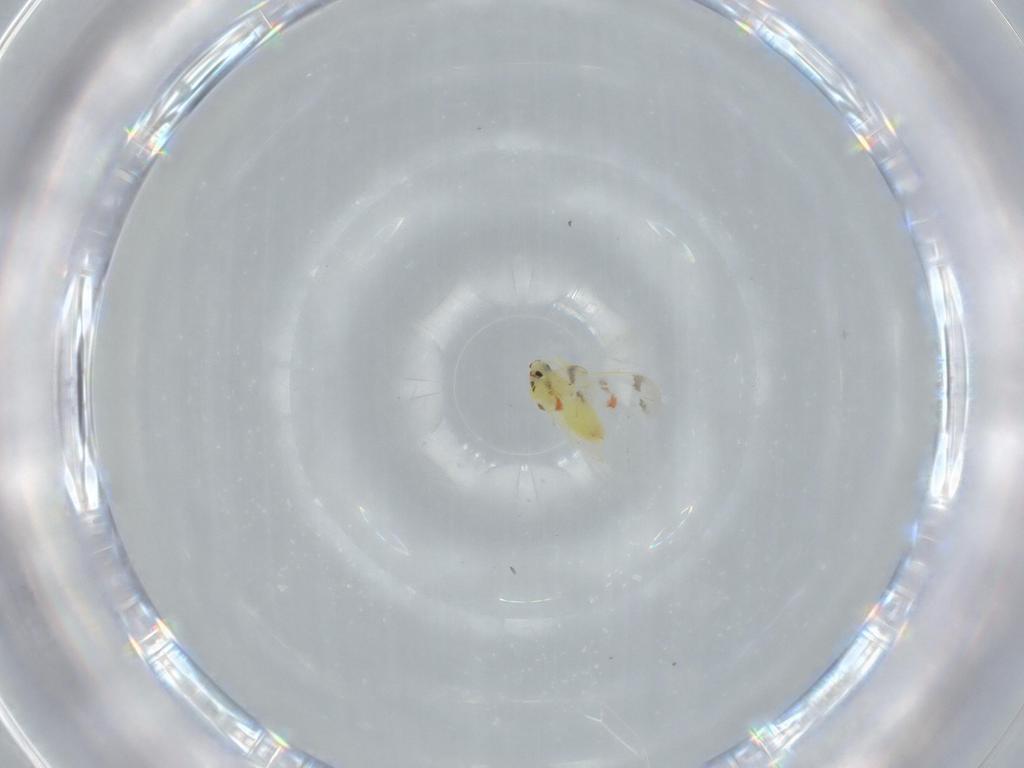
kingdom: Animalia
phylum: Arthropoda
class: Insecta
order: Hemiptera
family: Aleyrodidae
